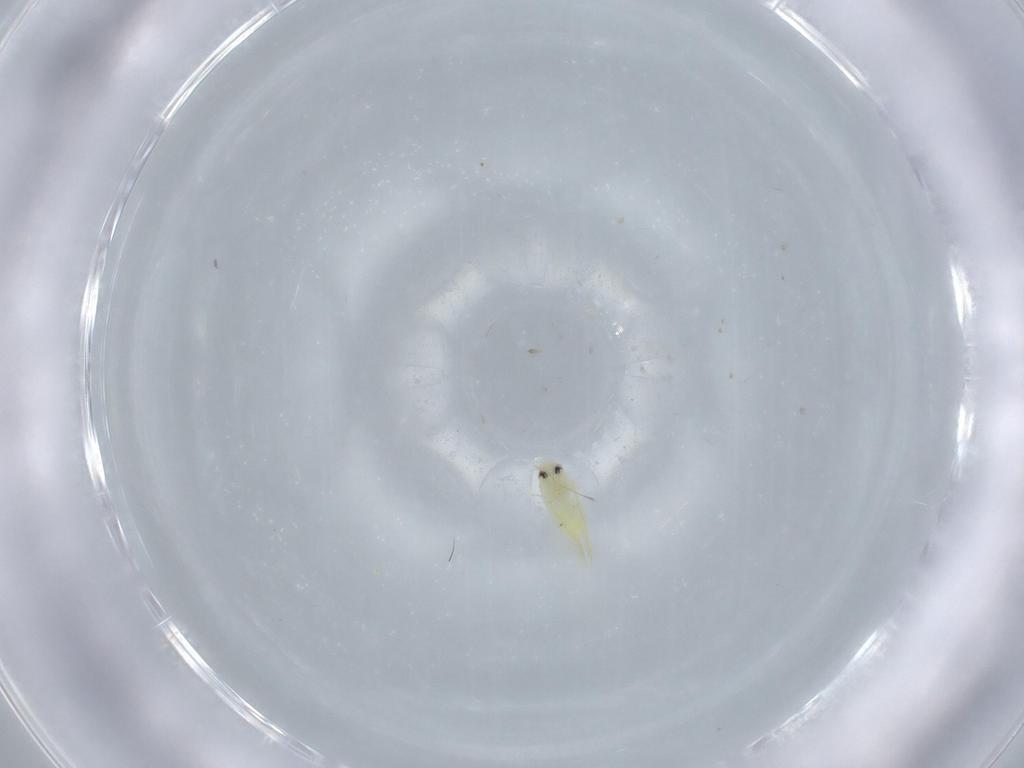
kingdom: Animalia
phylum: Arthropoda
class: Insecta
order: Hemiptera
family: Aleyrodidae
